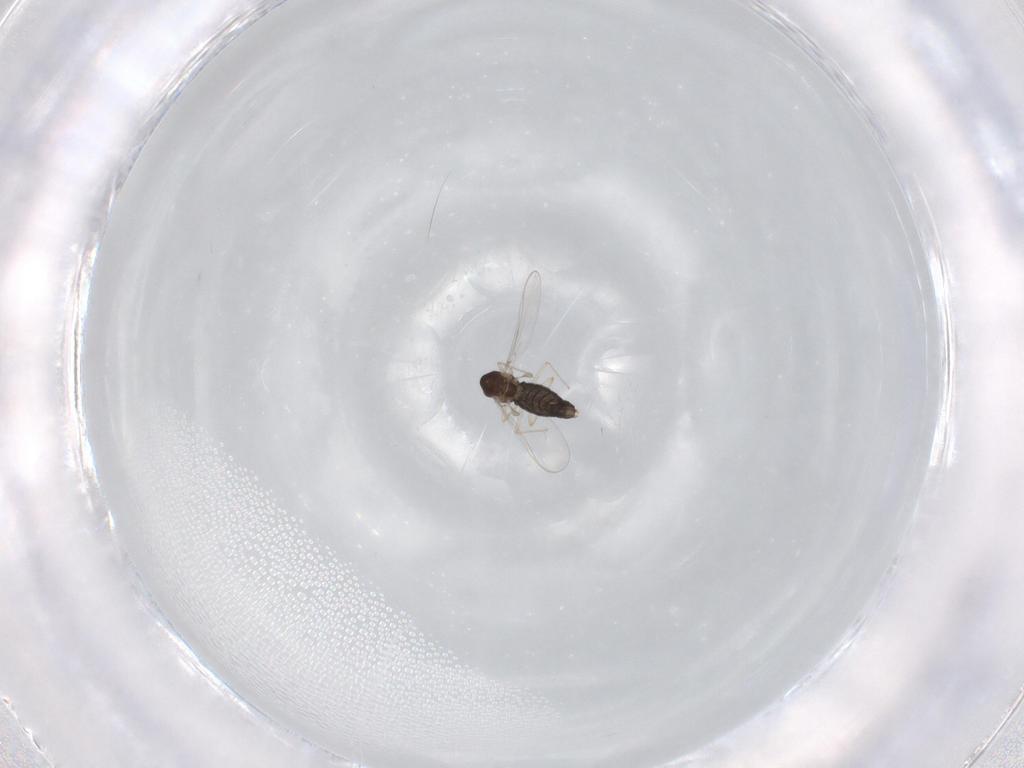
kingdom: Animalia
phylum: Arthropoda
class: Insecta
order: Diptera
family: Chironomidae
